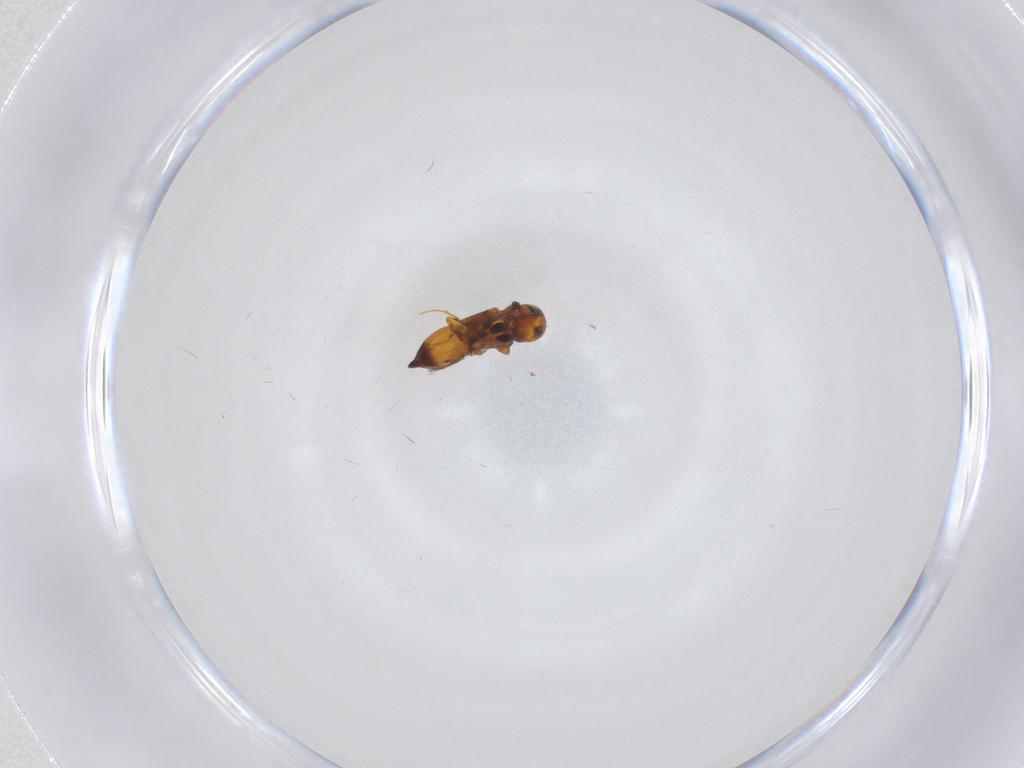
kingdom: Animalia
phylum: Arthropoda
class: Insecta
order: Hymenoptera
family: Platygastridae
